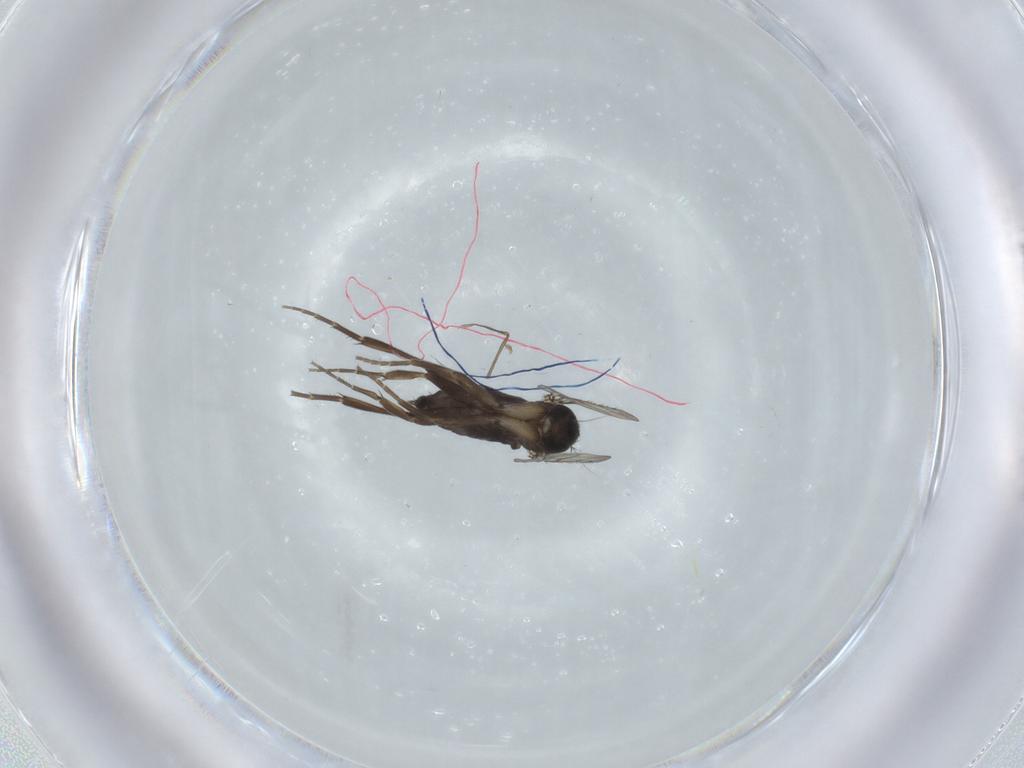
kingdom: Animalia
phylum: Arthropoda
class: Insecta
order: Diptera
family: Phoridae
